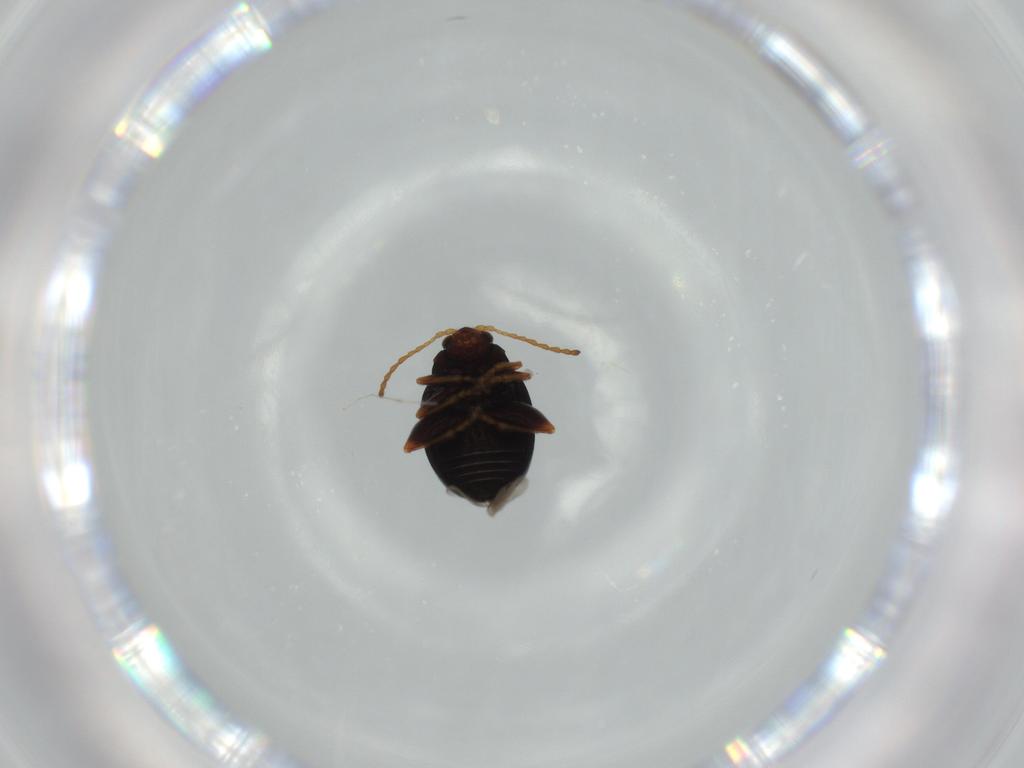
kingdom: Animalia
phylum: Arthropoda
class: Insecta
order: Coleoptera
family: Chrysomelidae
